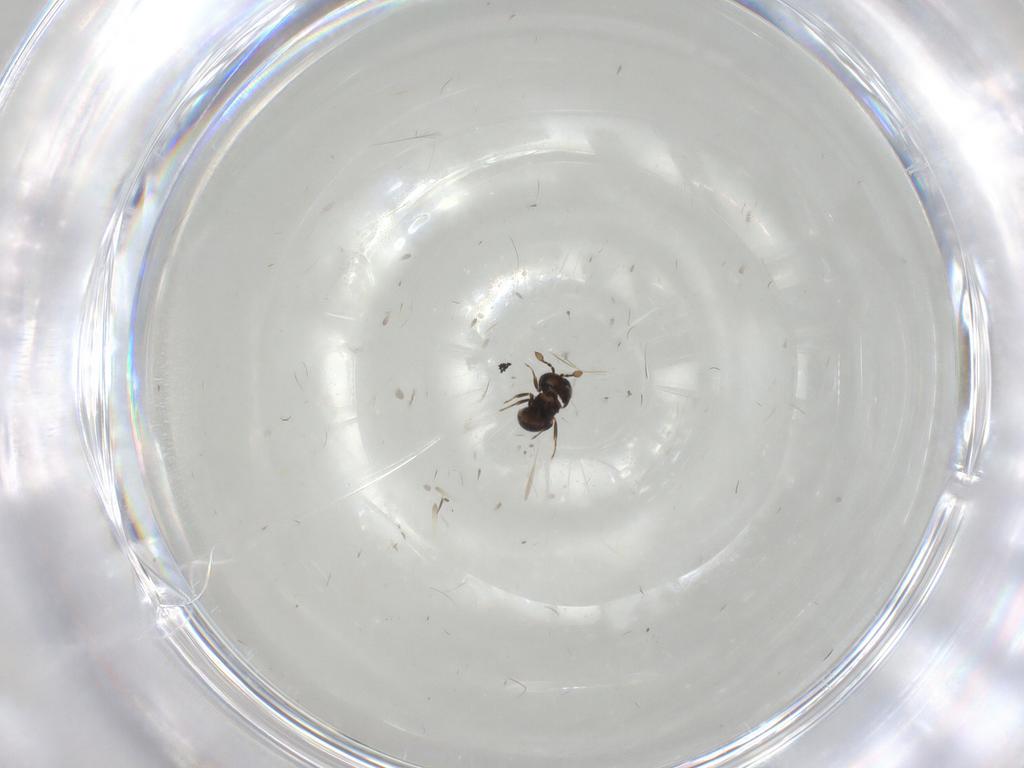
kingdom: Animalia
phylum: Arthropoda
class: Insecta
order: Hymenoptera
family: Scelionidae
